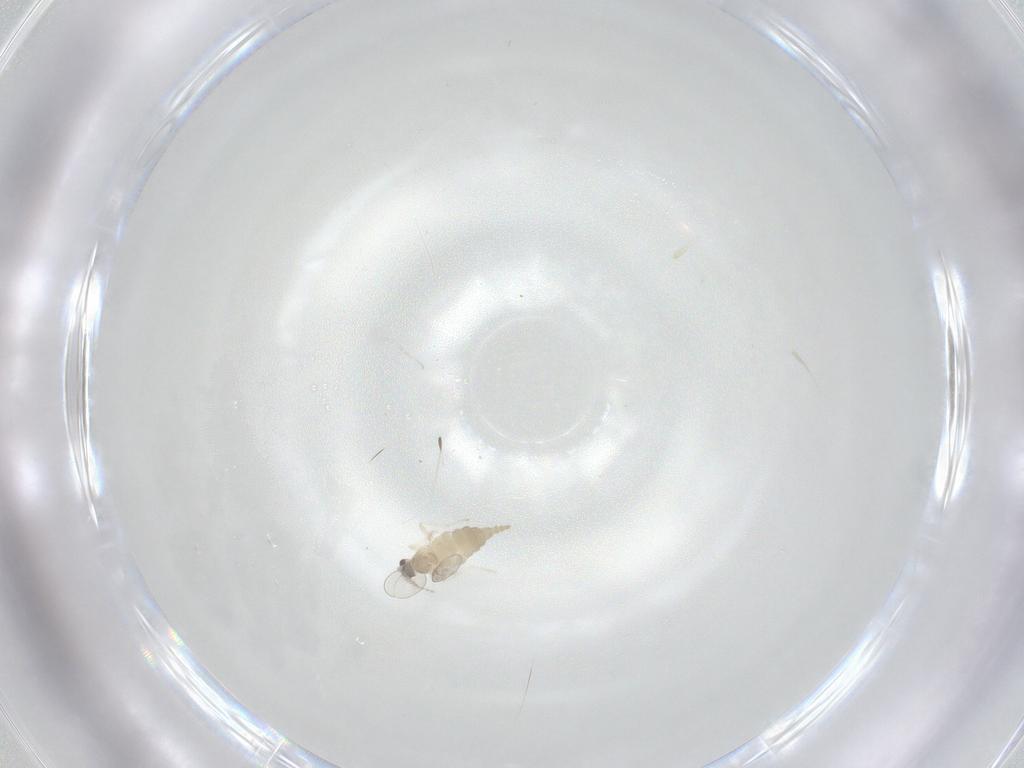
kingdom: Animalia
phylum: Arthropoda
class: Insecta
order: Diptera
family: Cecidomyiidae
